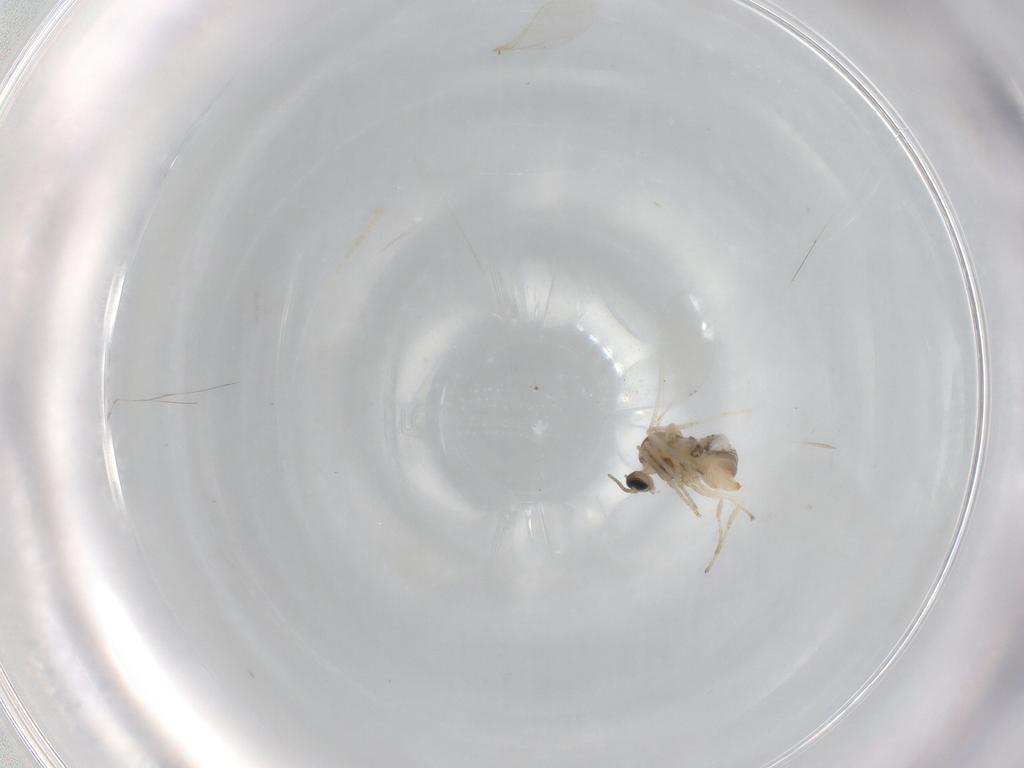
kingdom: Animalia
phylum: Arthropoda
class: Insecta
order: Diptera
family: Cecidomyiidae
